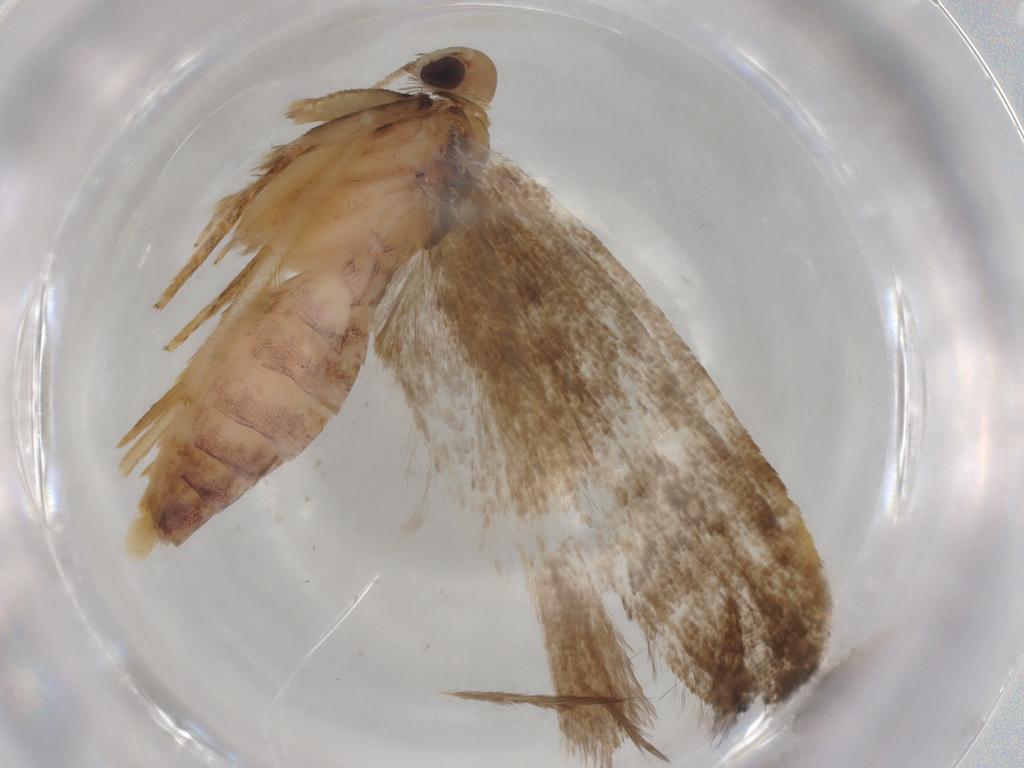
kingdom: Animalia
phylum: Arthropoda
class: Insecta
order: Lepidoptera
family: Gelechiidae
